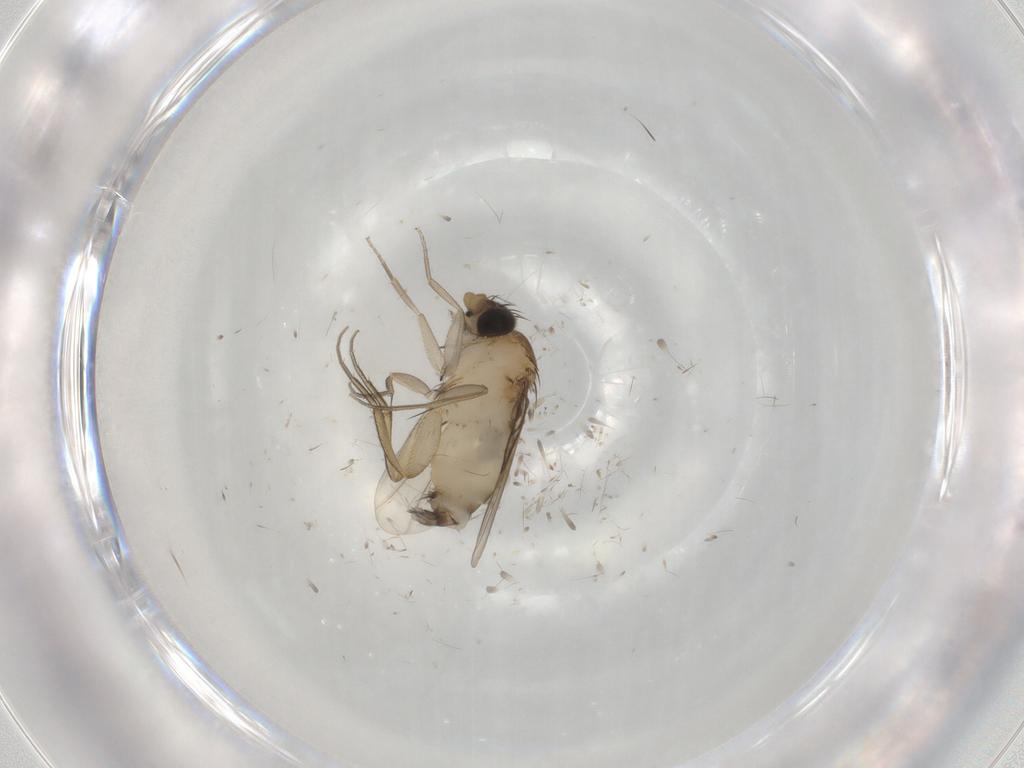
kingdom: Animalia
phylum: Arthropoda
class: Insecta
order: Diptera
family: Phoridae
